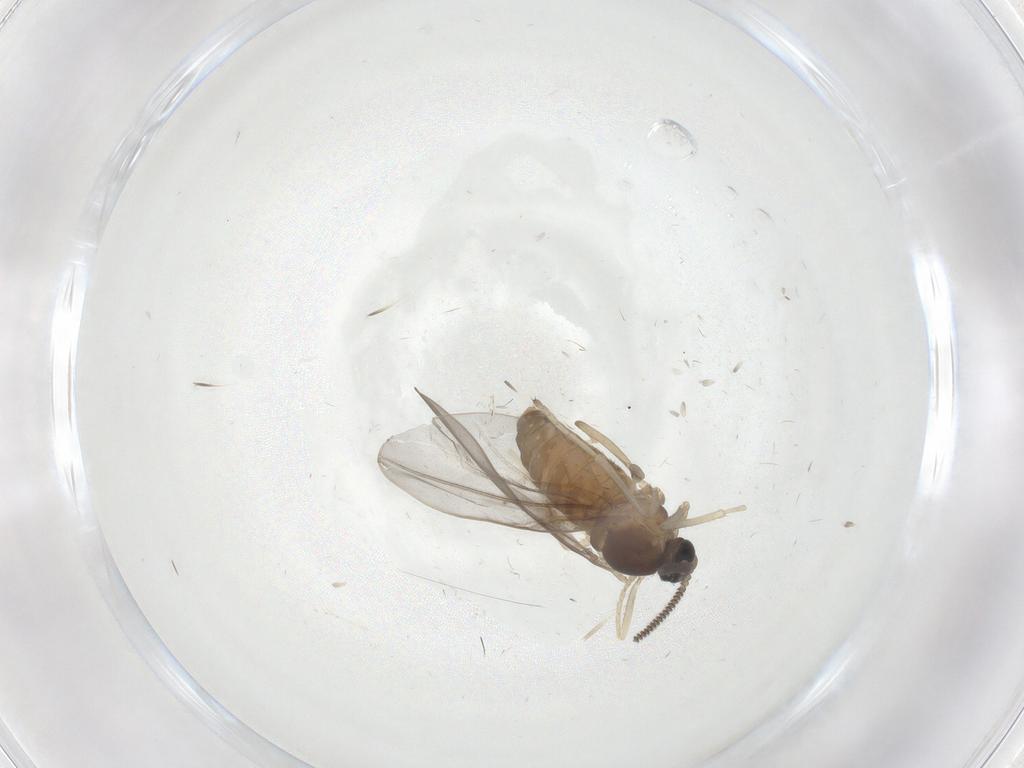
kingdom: Animalia
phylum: Arthropoda
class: Insecta
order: Diptera
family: Cecidomyiidae
